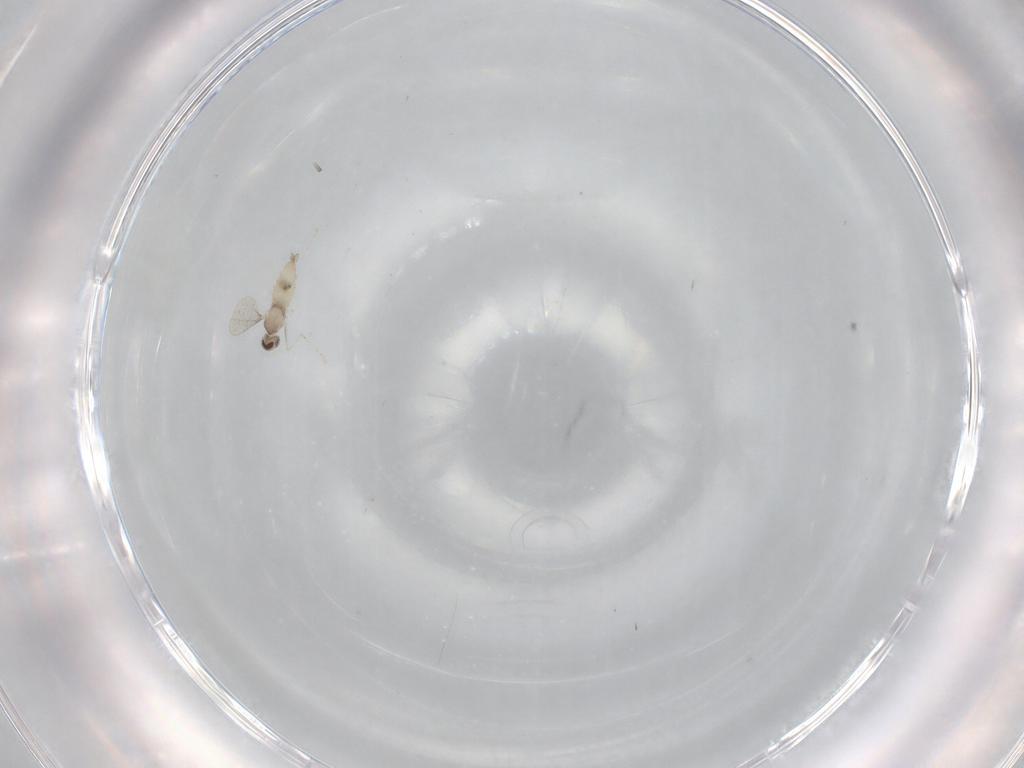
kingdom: Animalia
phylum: Arthropoda
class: Insecta
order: Diptera
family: Cecidomyiidae
